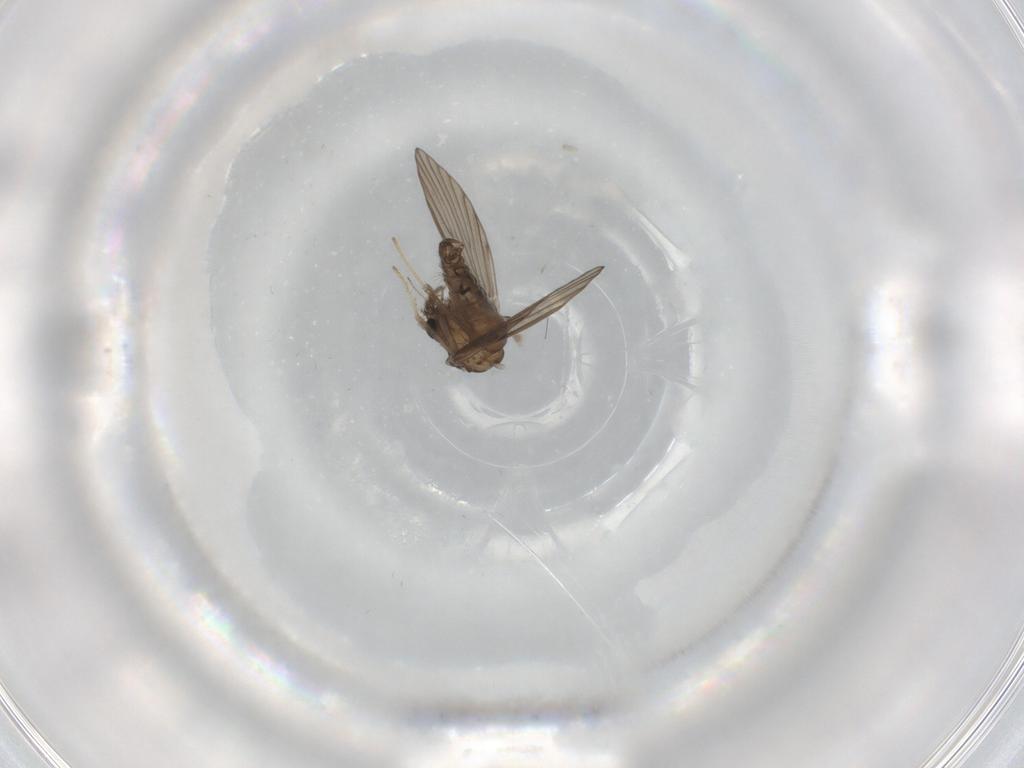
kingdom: Animalia
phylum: Arthropoda
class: Insecta
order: Diptera
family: Psychodidae
